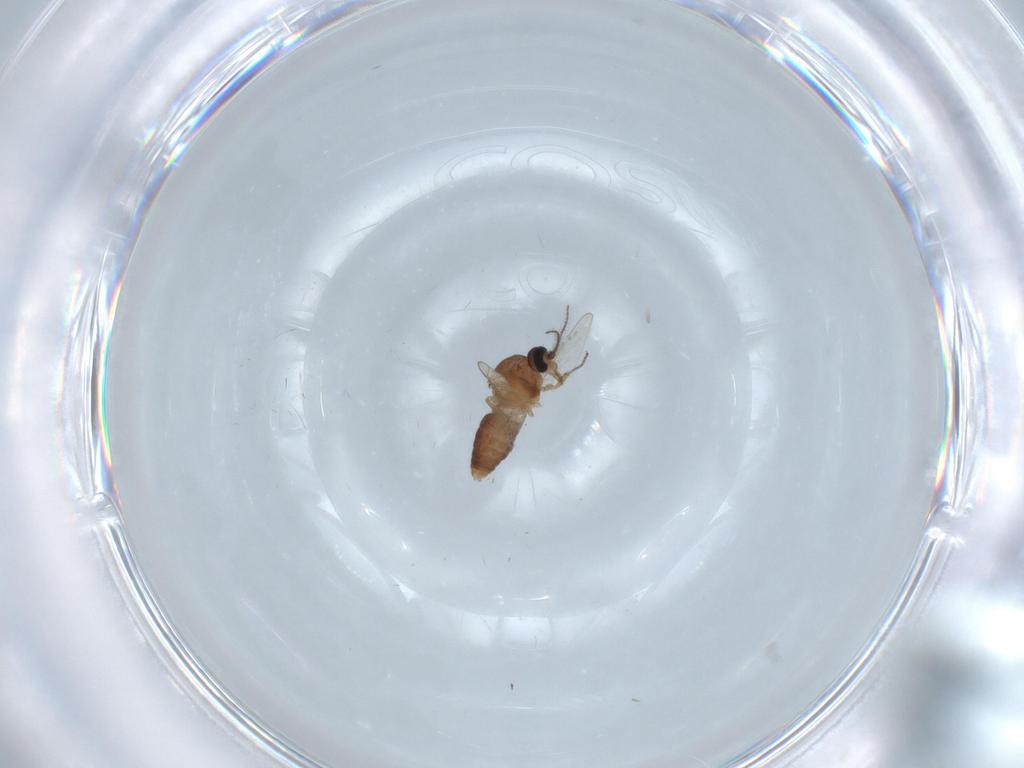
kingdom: Animalia
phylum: Arthropoda
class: Insecta
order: Diptera
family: Ceratopogonidae
